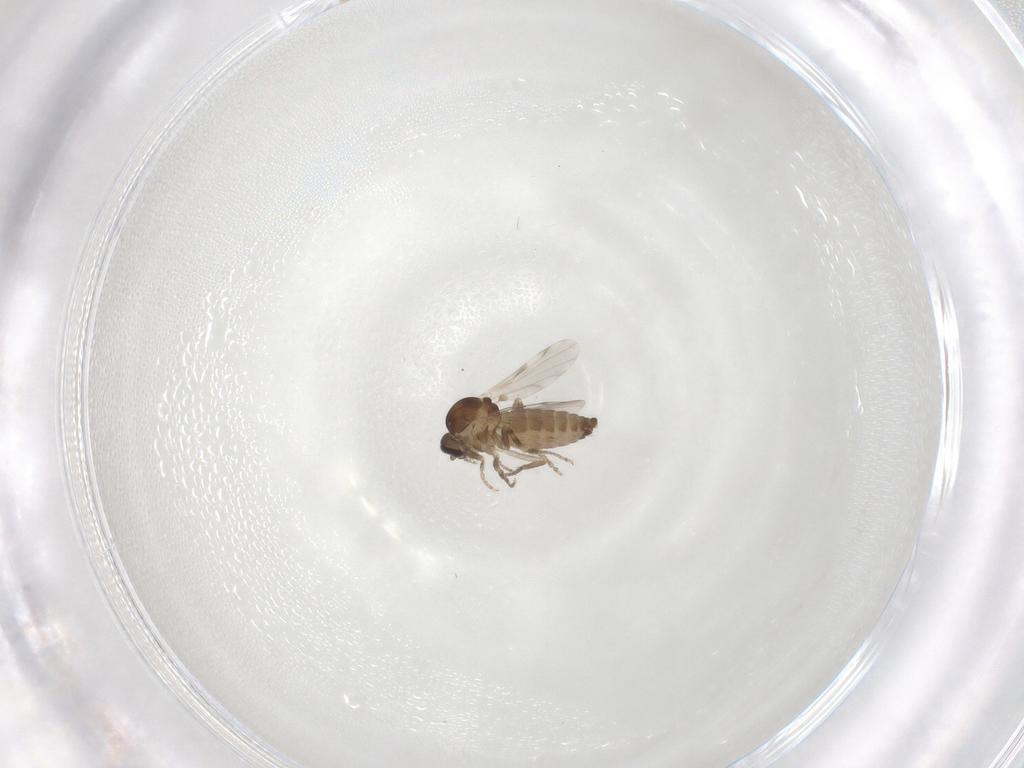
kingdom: Animalia
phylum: Arthropoda
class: Insecta
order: Diptera
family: Ceratopogonidae
